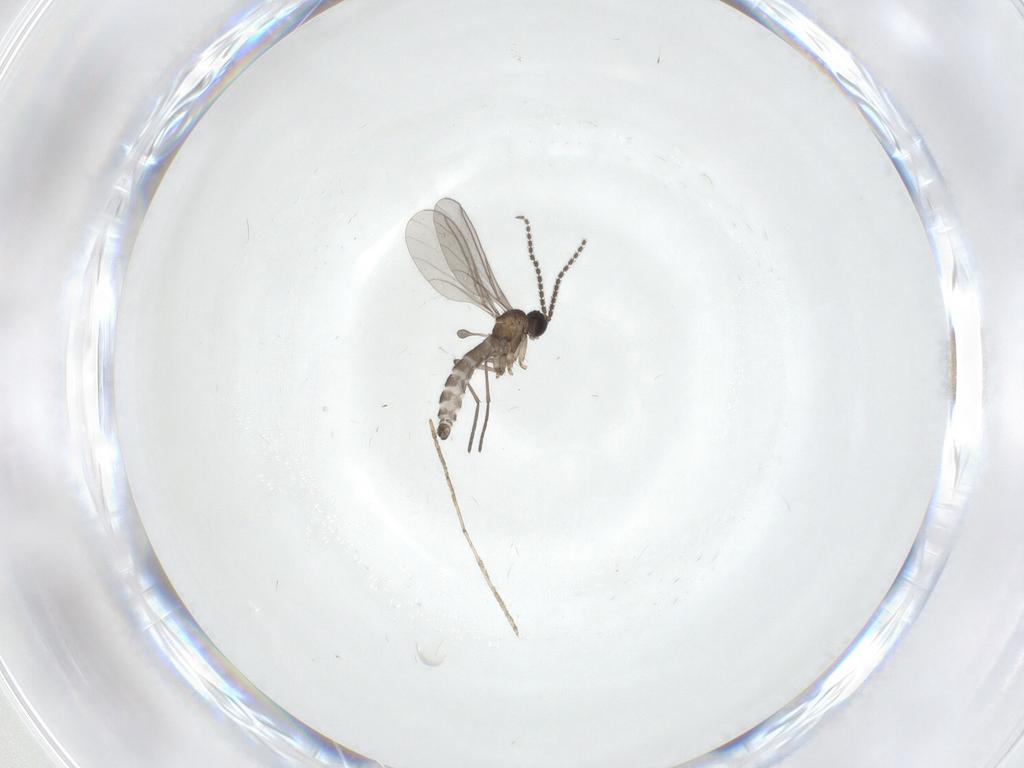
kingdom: Animalia
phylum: Arthropoda
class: Insecta
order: Diptera
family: Sciaridae
